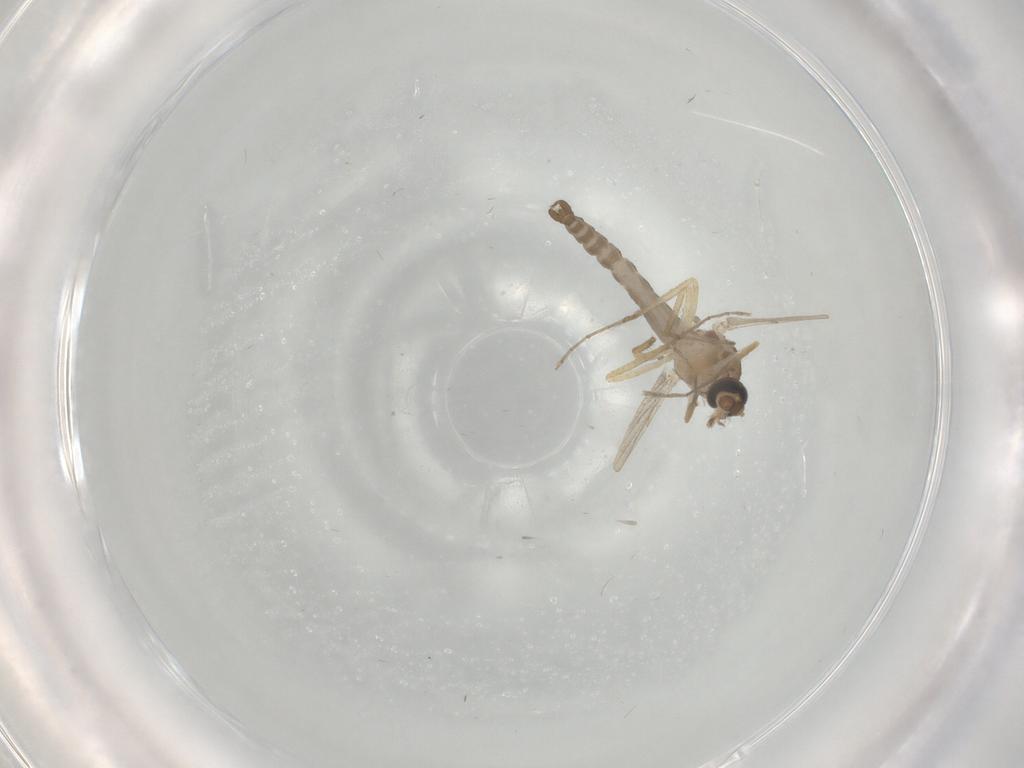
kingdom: Animalia
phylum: Arthropoda
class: Insecta
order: Diptera
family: Ceratopogonidae
